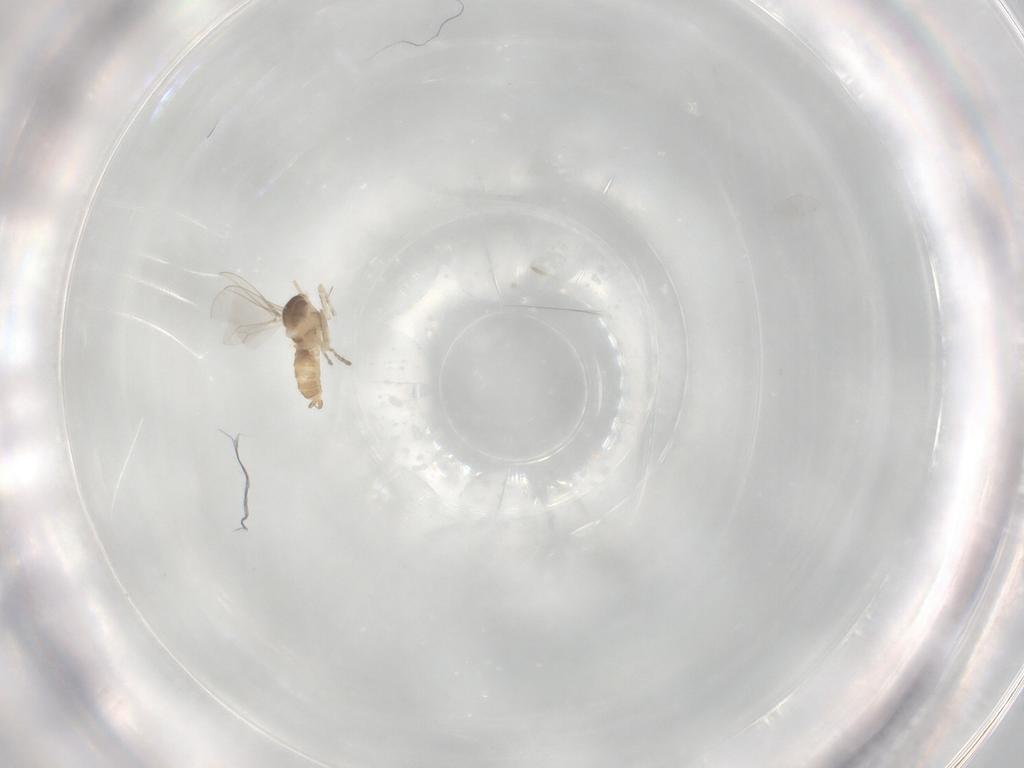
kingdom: Animalia
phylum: Arthropoda
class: Insecta
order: Diptera
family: Cecidomyiidae
